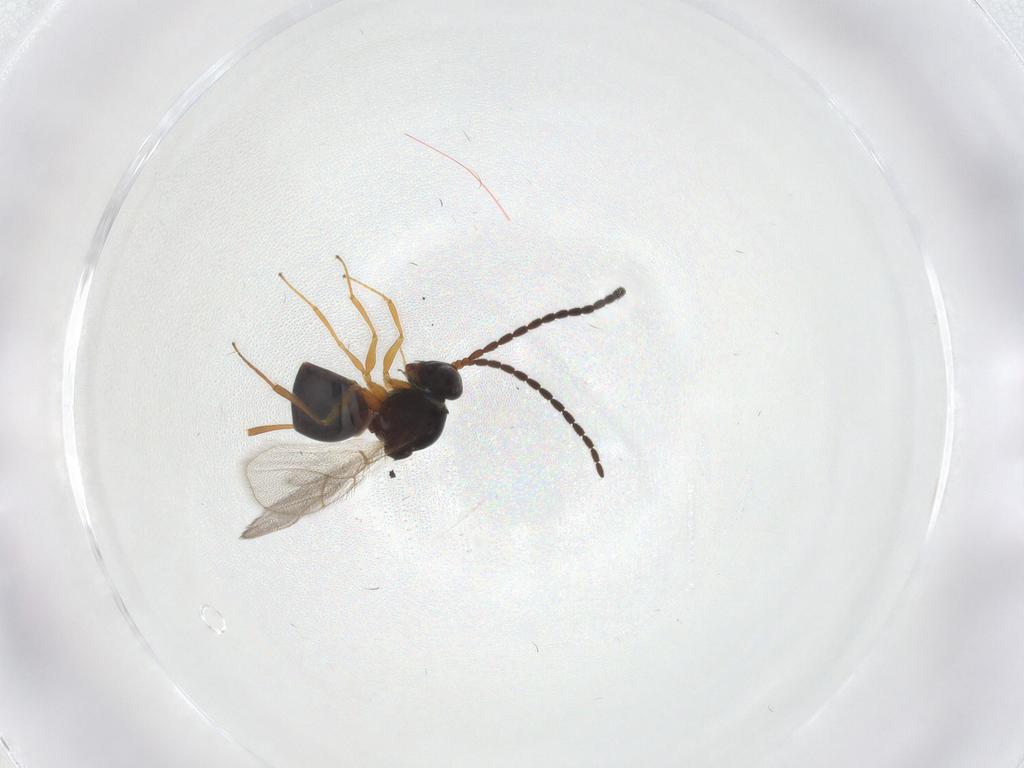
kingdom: Animalia
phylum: Arthropoda
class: Insecta
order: Hymenoptera
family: Figitidae
